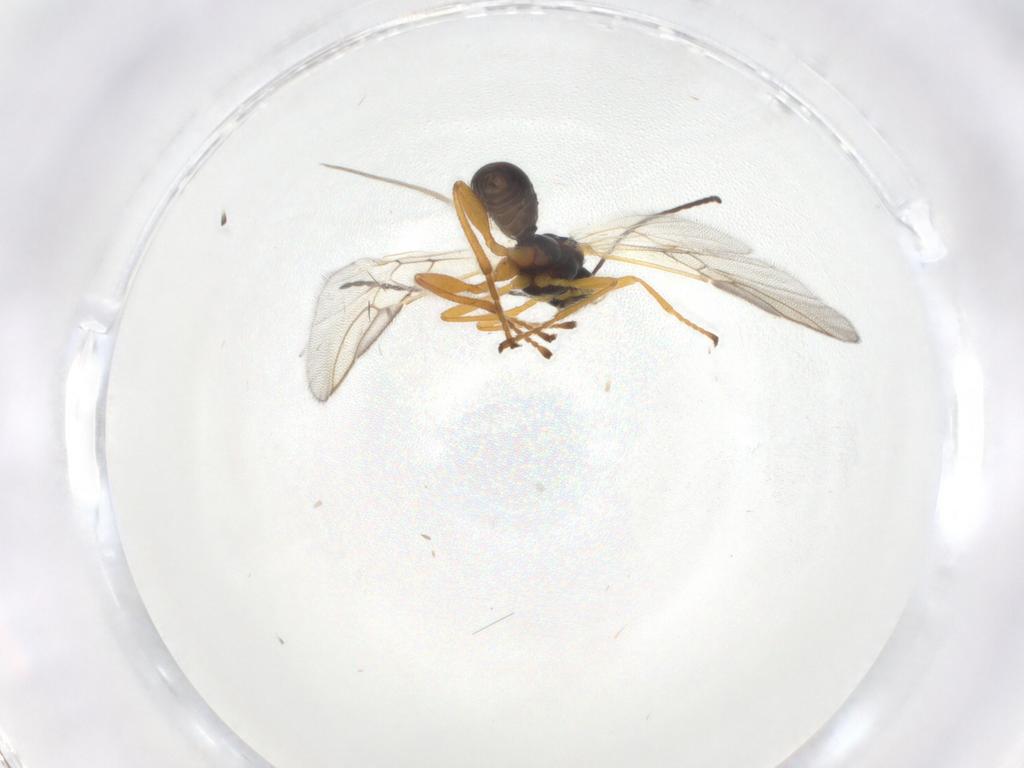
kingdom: Animalia
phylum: Arthropoda
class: Insecta
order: Hymenoptera
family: Braconidae
